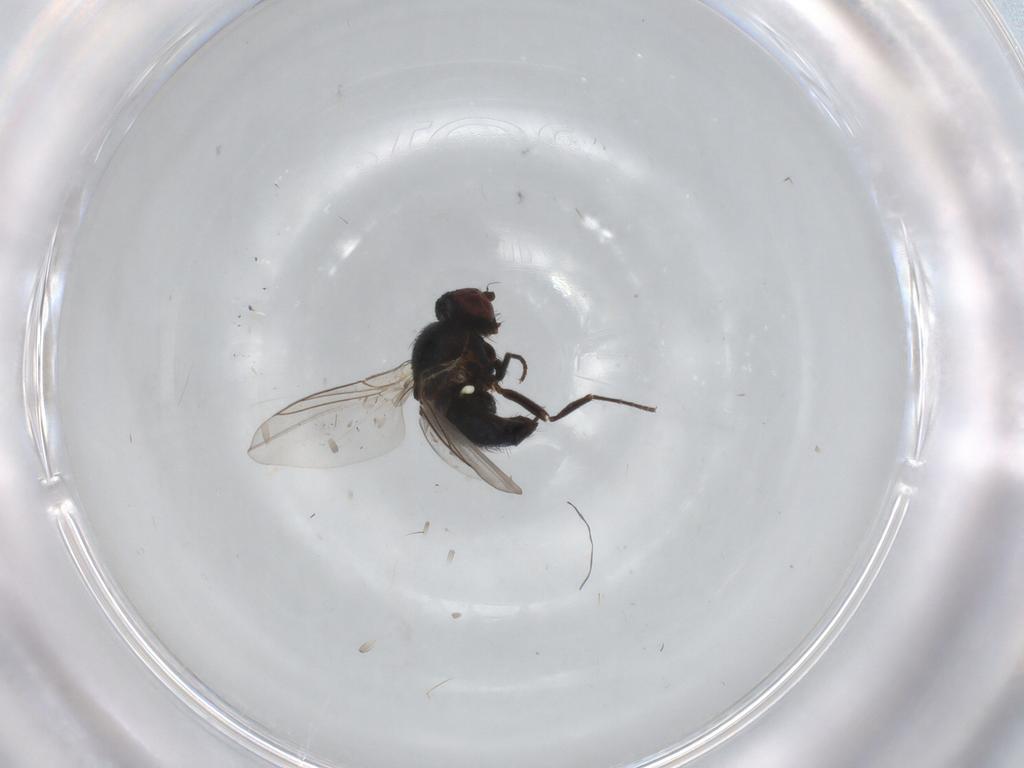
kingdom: Animalia
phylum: Arthropoda
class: Insecta
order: Diptera
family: Agromyzidae
